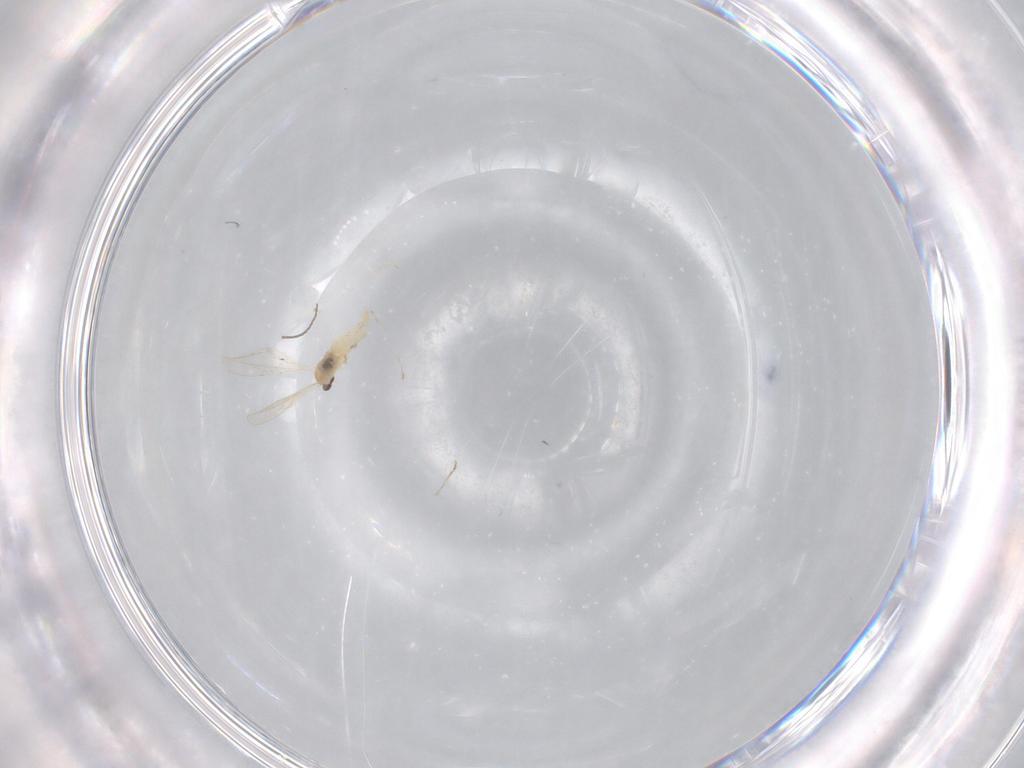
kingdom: Animalia
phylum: Arthropoda
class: Insecta
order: Diptera
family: Cecidomyiidae
